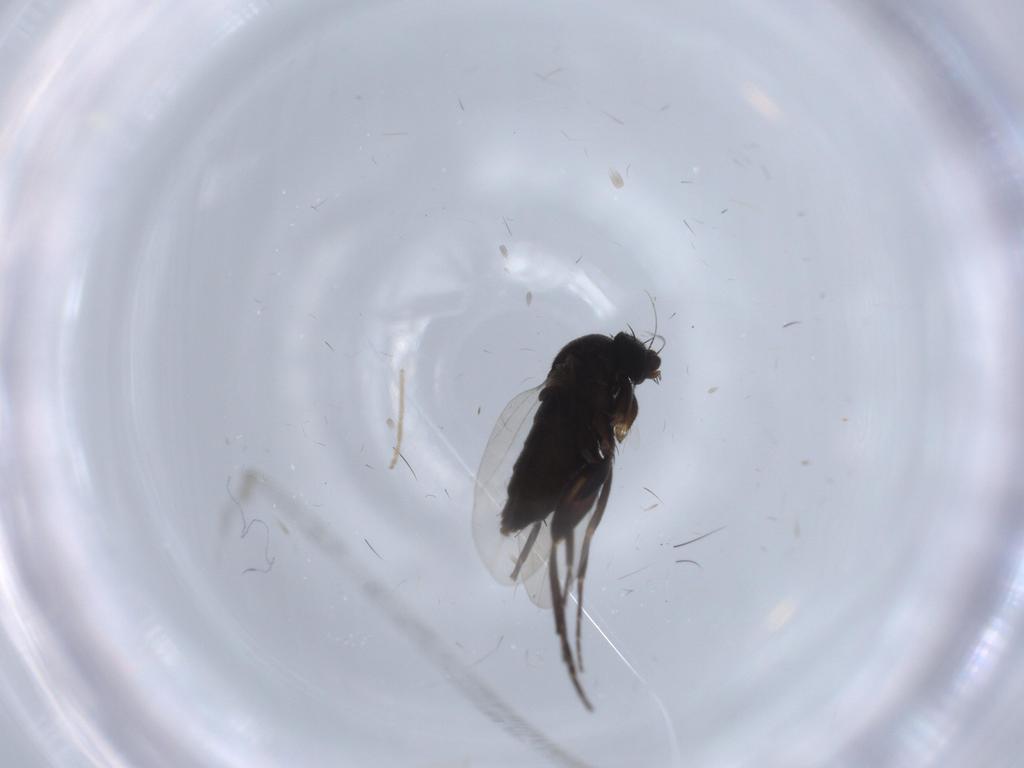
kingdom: Animalia
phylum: Arthropoda
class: Insecta
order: Diptera
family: Phoridae
